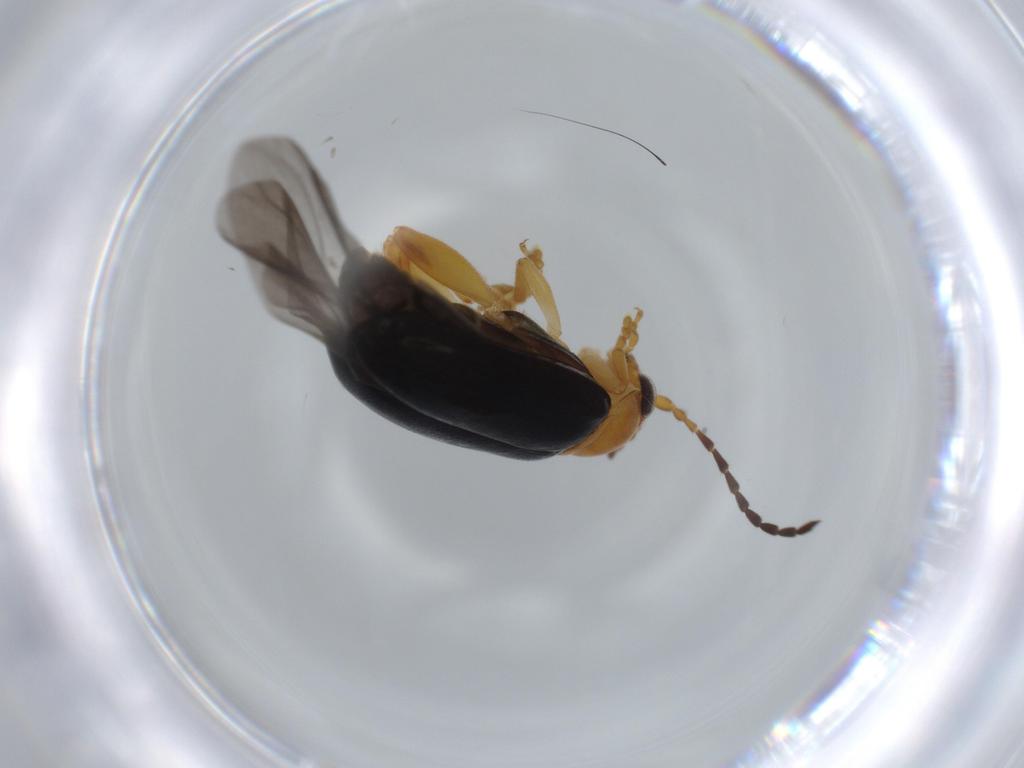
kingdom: Animalia
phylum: Arthropoda
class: Insecta
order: Coleoptera
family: Chrysomelidae
